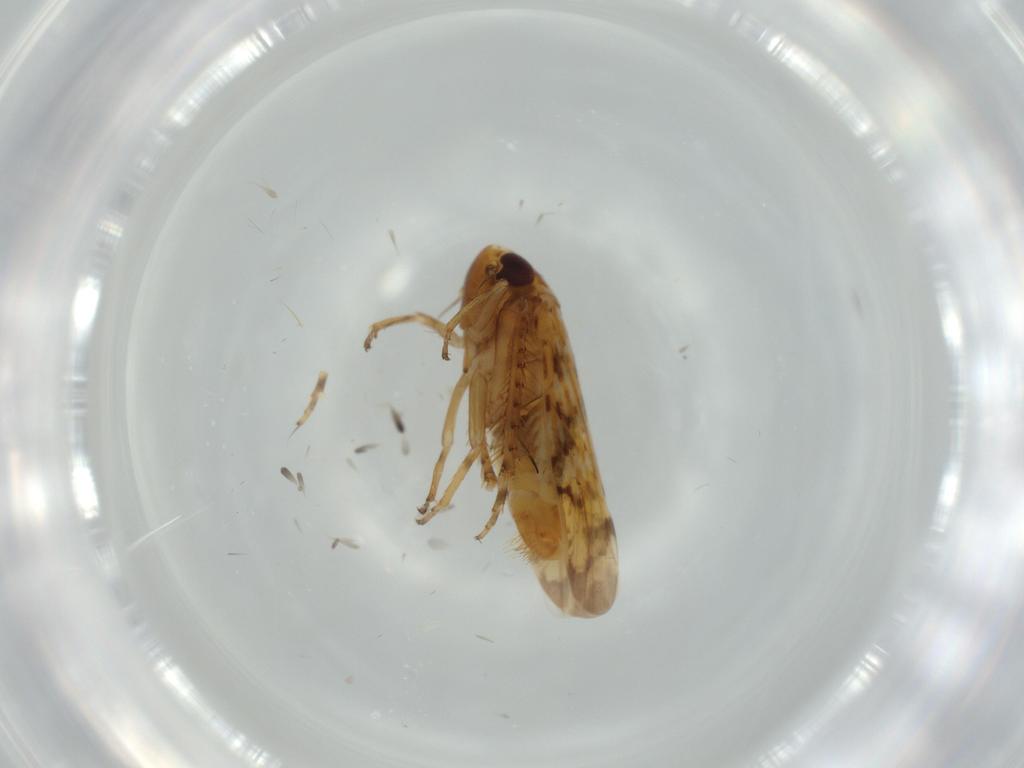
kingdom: Animalia
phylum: Arthropoda
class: Insecta
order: Hemiptera
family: Cicadellidae
